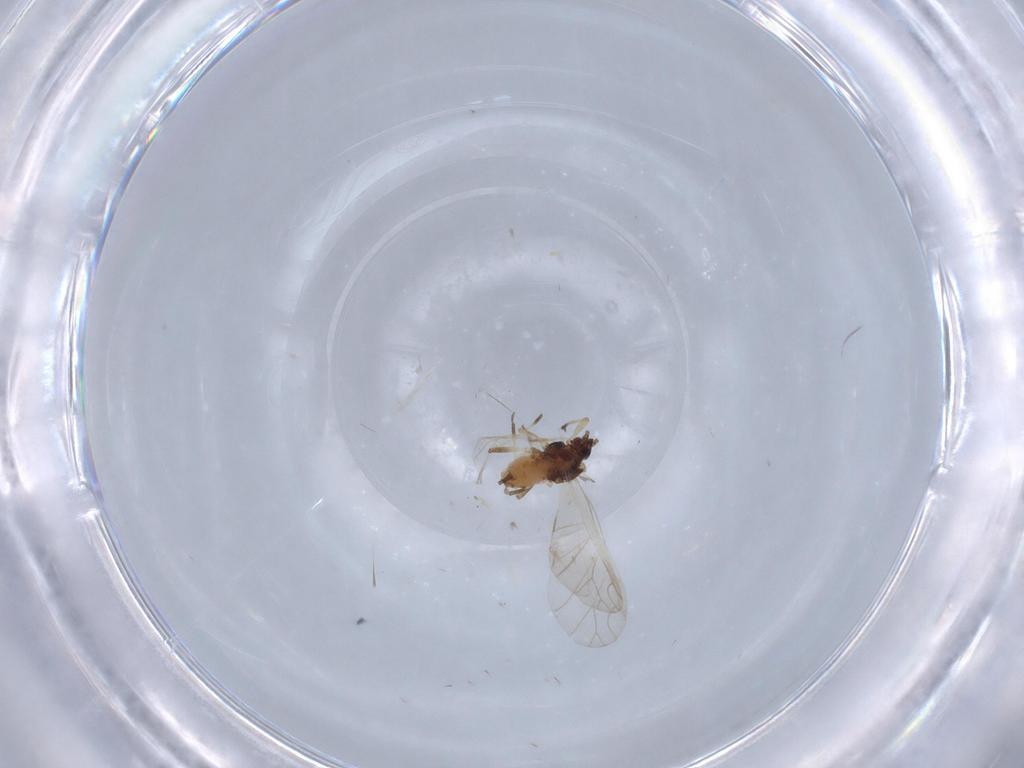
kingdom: Animalia
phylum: Arthropoda
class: Insecta
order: Hemiptera
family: Aphididae
